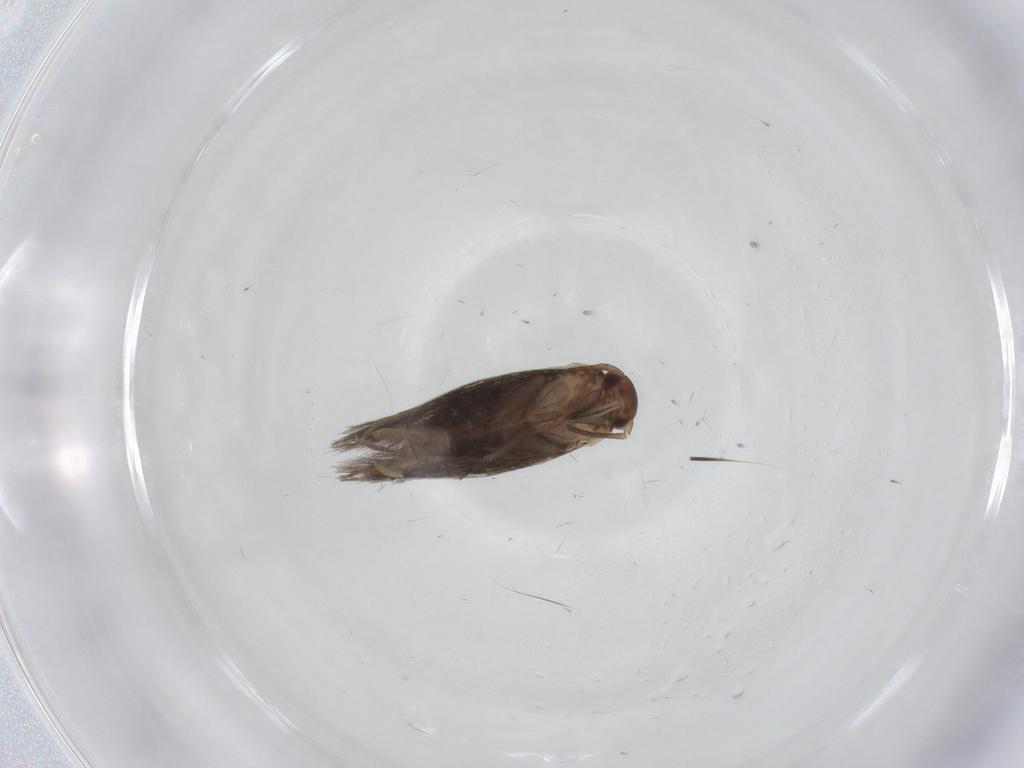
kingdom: Animalia
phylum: Arthropoda
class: Insecta
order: Lepidoptera
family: Elachistidae
